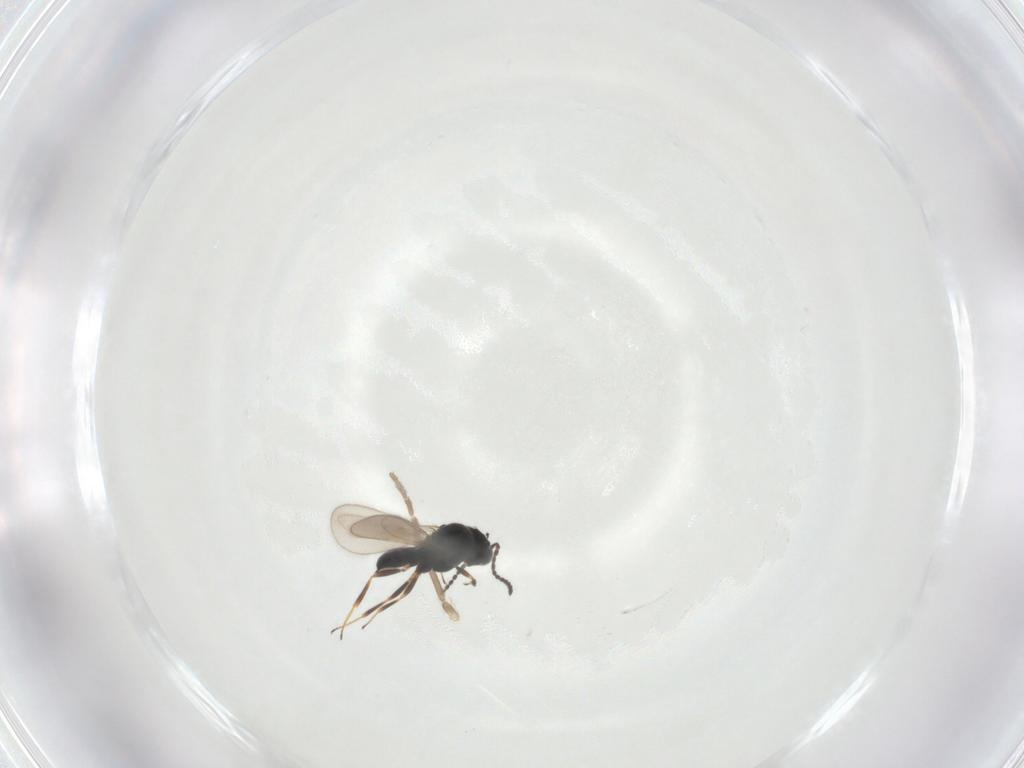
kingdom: Animalia
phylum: Arthropoda
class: Insecta
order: Hymenoptera
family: Scelionidae
